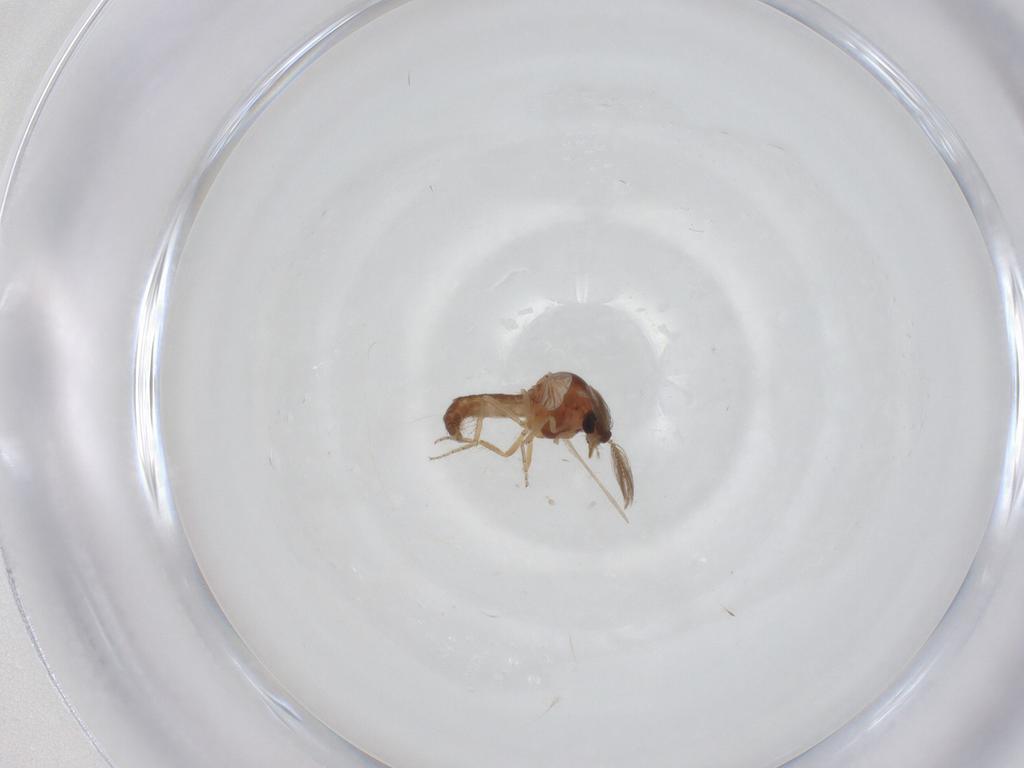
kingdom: Animalia
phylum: Arthropoda
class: Insecta
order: Diptera
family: Ceratopogonidae
